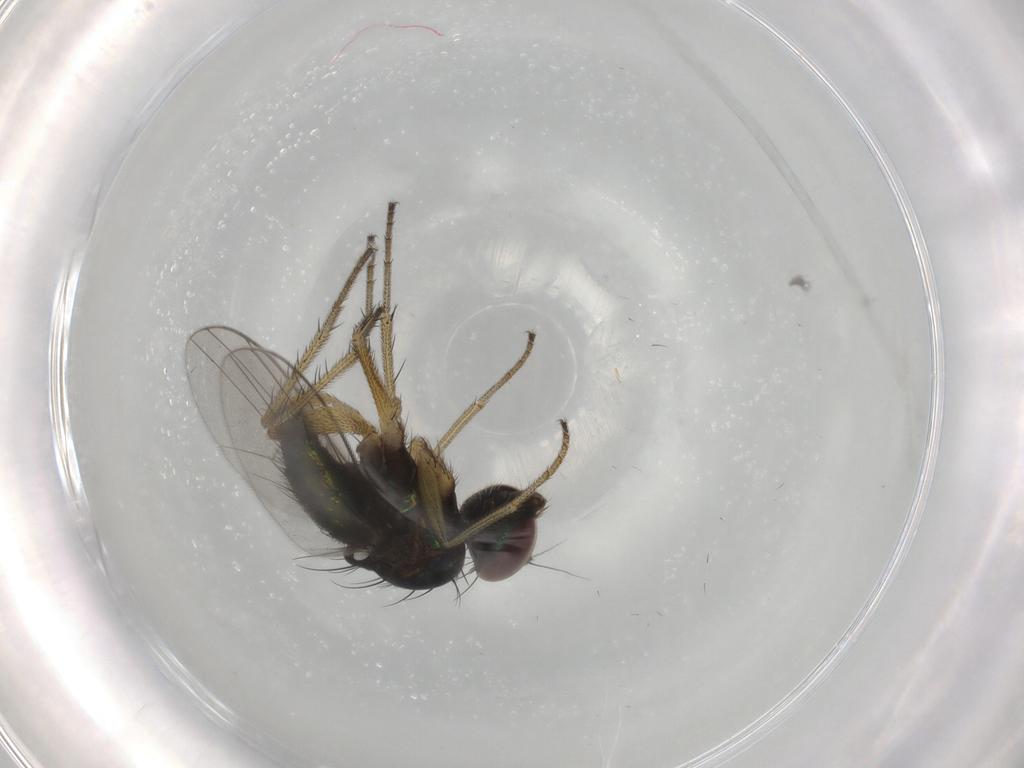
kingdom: Animalia
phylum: Arthropoda
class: Insecta
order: Diptera
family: Dolichopodidae
